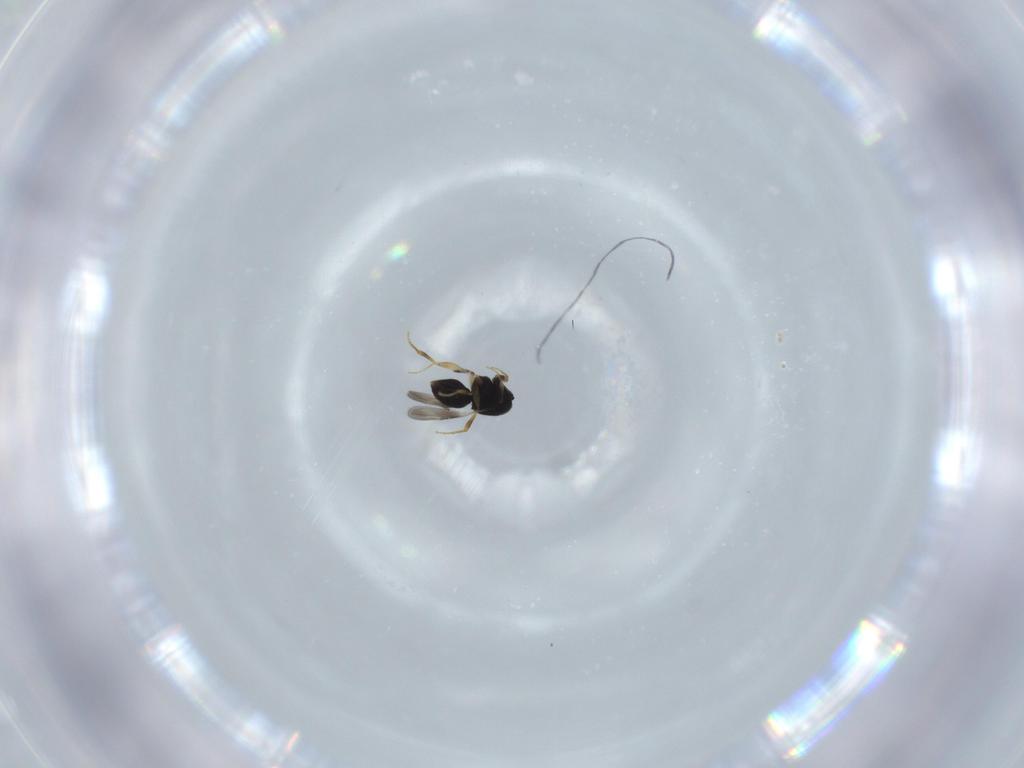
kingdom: Animalia
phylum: Arthropoda
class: Insecta
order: Hymenoptera
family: Ceraphronidae
